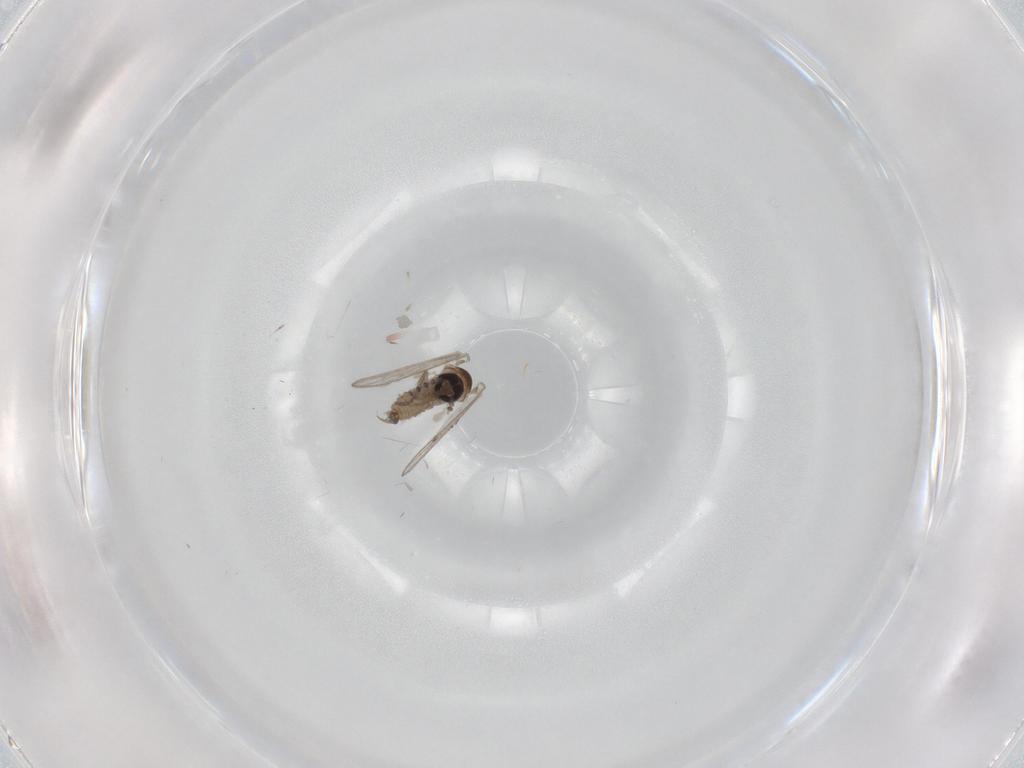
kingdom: Animalia
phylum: Arthropoda
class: Insecta
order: Diptera
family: Psychodidae
